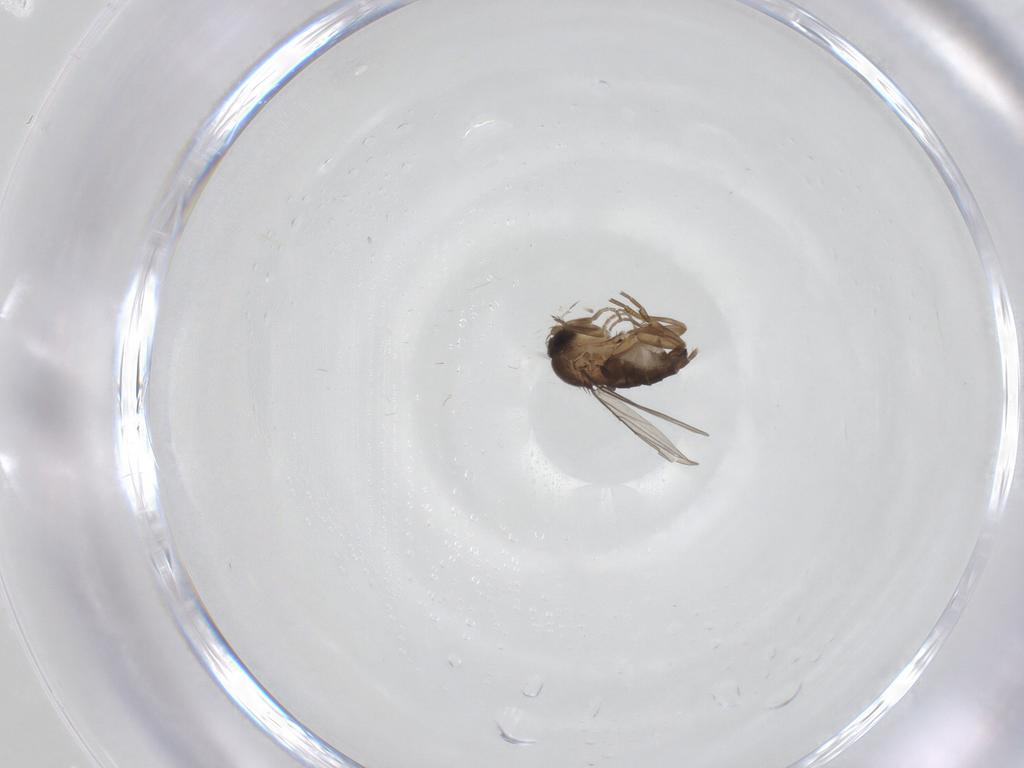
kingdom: Animalia
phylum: Arthropoda
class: Insecta
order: Diptera
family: Phoridae
